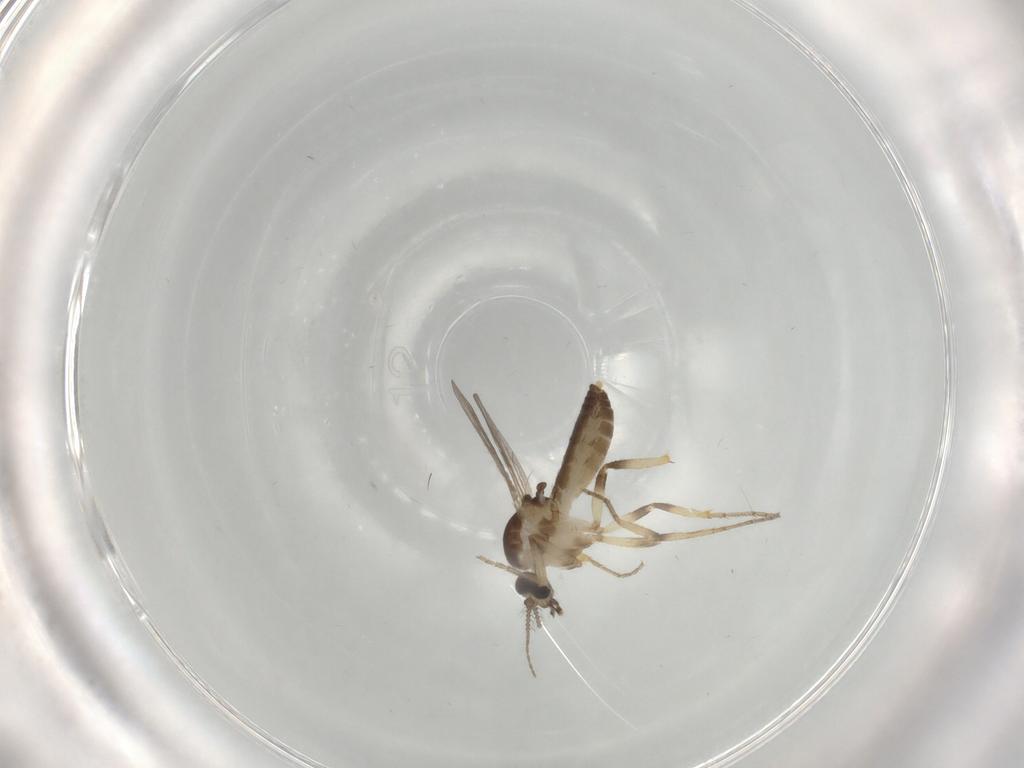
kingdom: Animalia
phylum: Arthropoda
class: Insecta
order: Diptera
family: Ceratopogonidae
